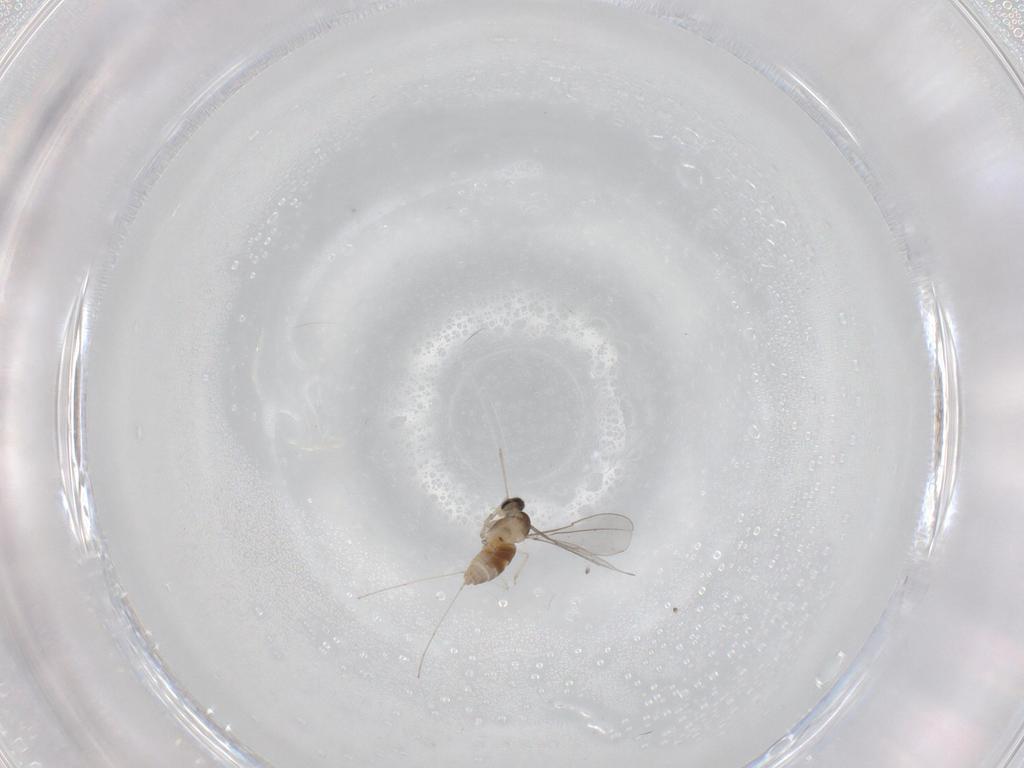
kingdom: Animalia
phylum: Arthropoda
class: Insecta
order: Diptera
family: Cecidomyiidae
